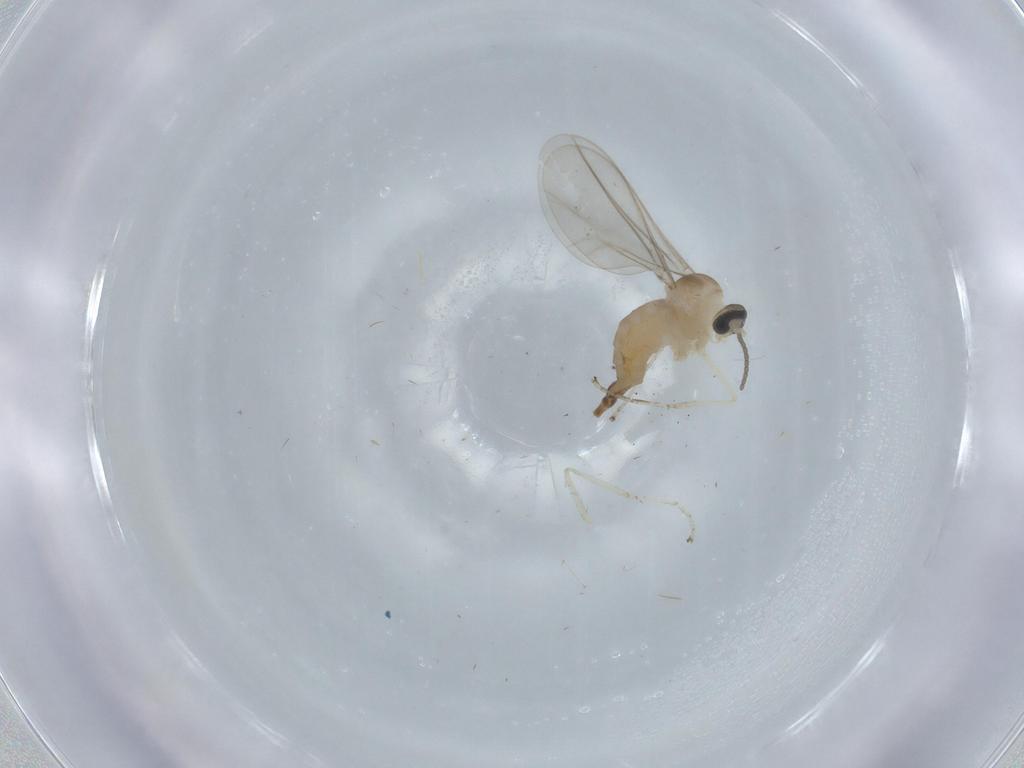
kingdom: Animalia
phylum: Arthropoda
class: Insecta
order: Diptera
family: Cecidomyiidae
